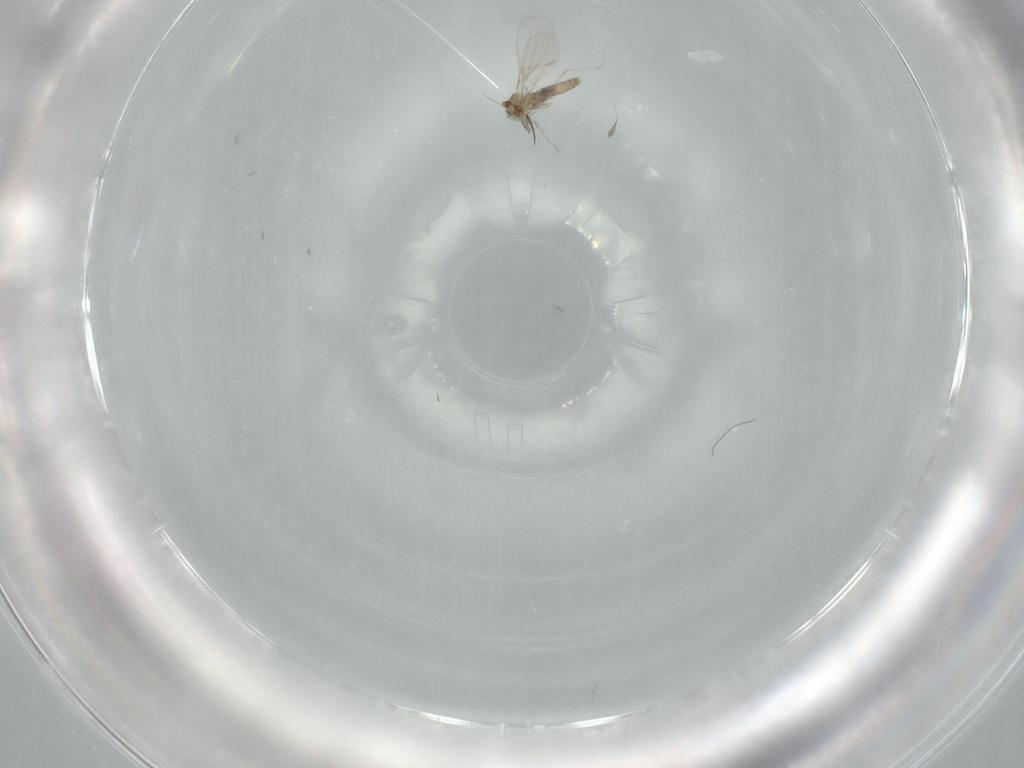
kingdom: Animalia
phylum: Arthropoda
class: Insecta
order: Diptera
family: Cecidomyiidae
